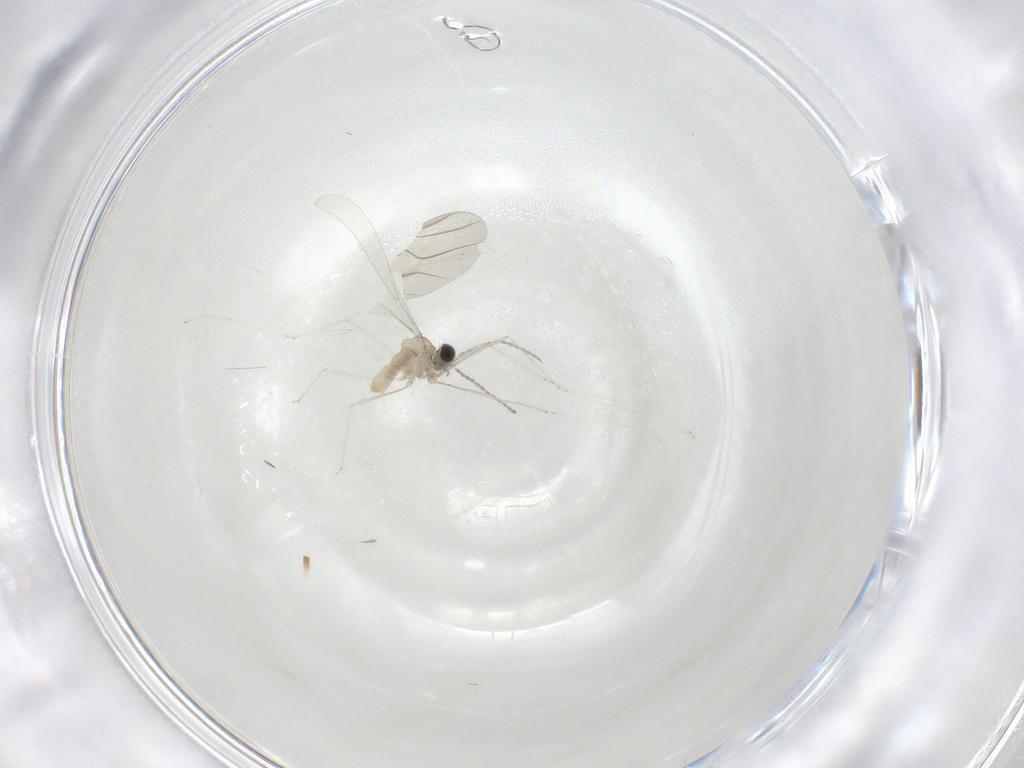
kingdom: Animalia
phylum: Arthropoda
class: Insecta
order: Diptera
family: Cecidomyiidae
